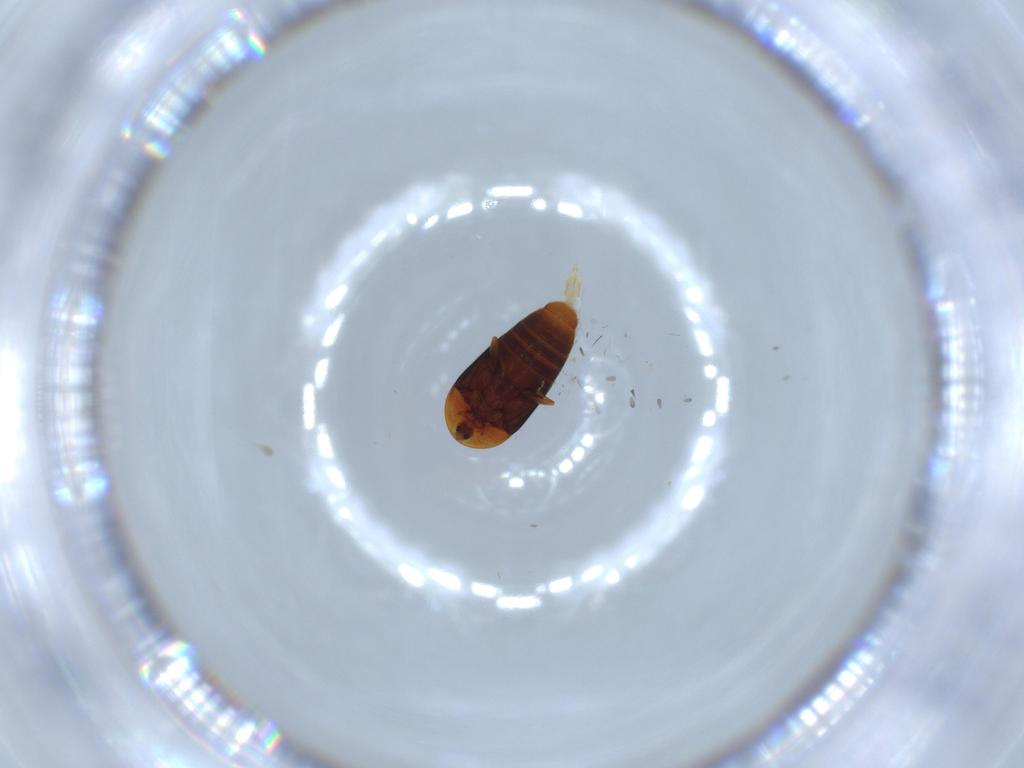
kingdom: Animalia
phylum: Arthropoda
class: Insecta
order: Coleoptera
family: Corylophidae
